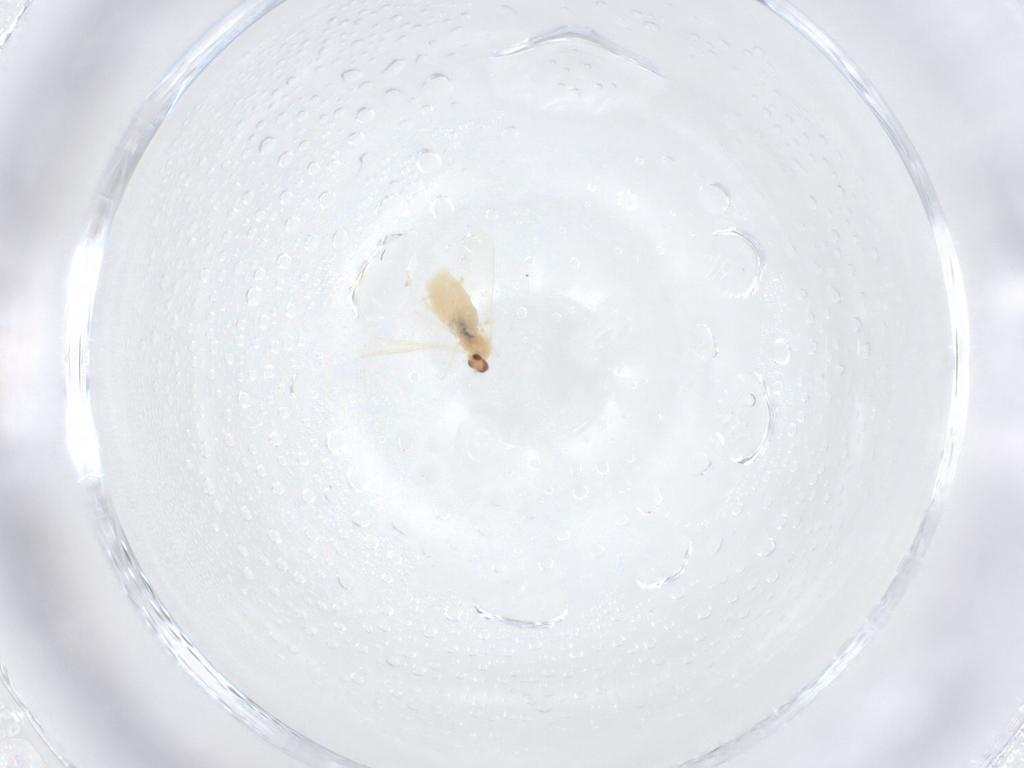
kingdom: Animalia
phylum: Arthropoda
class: Insecta
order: Diptera
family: Cecidomyiidae
